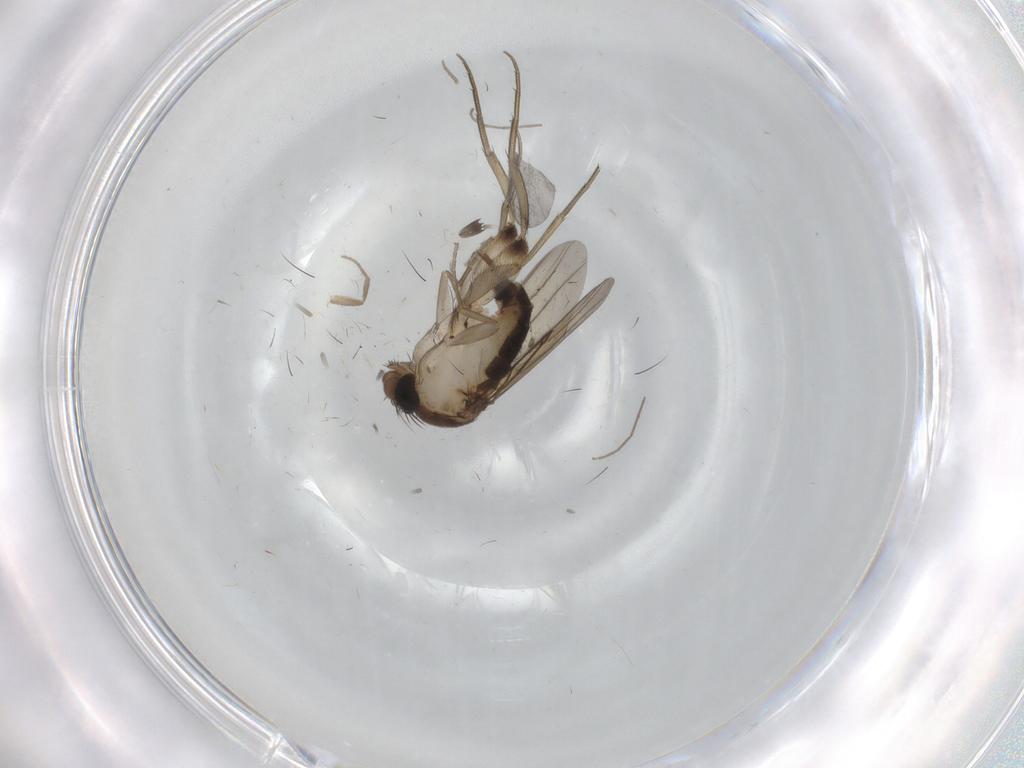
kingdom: Animalia
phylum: Arthropoda
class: Insecta
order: Diptera
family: Phoridae
